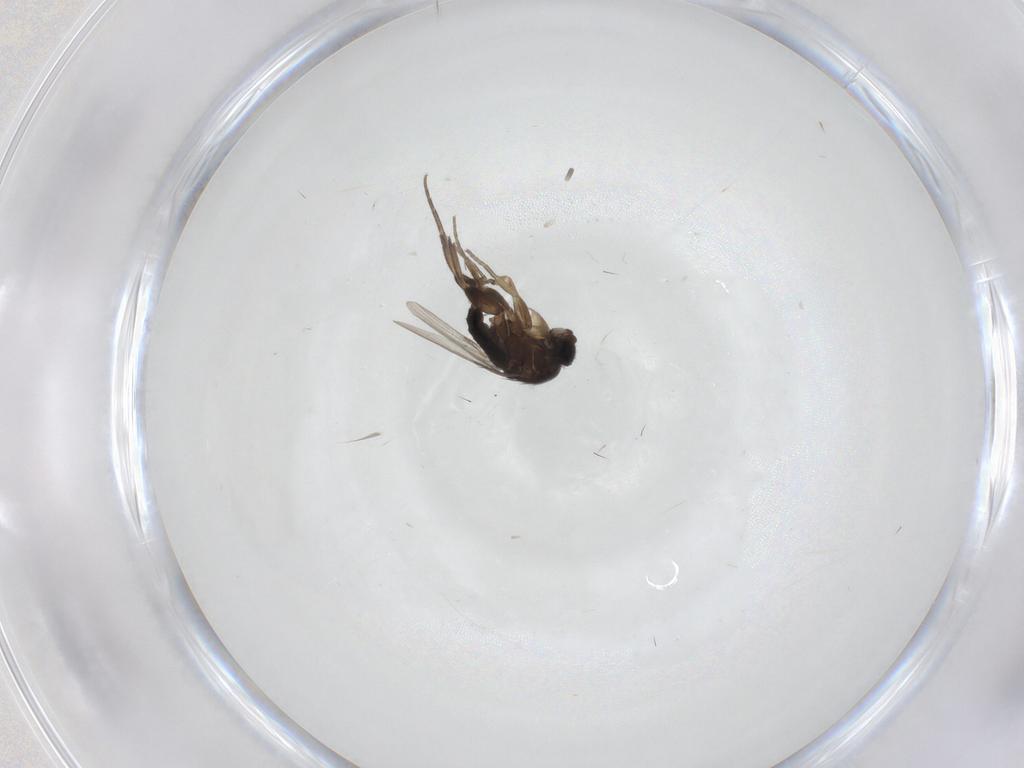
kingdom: Animalia
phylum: Arthropoda
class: Insecta
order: Diptera
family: Phoridae
